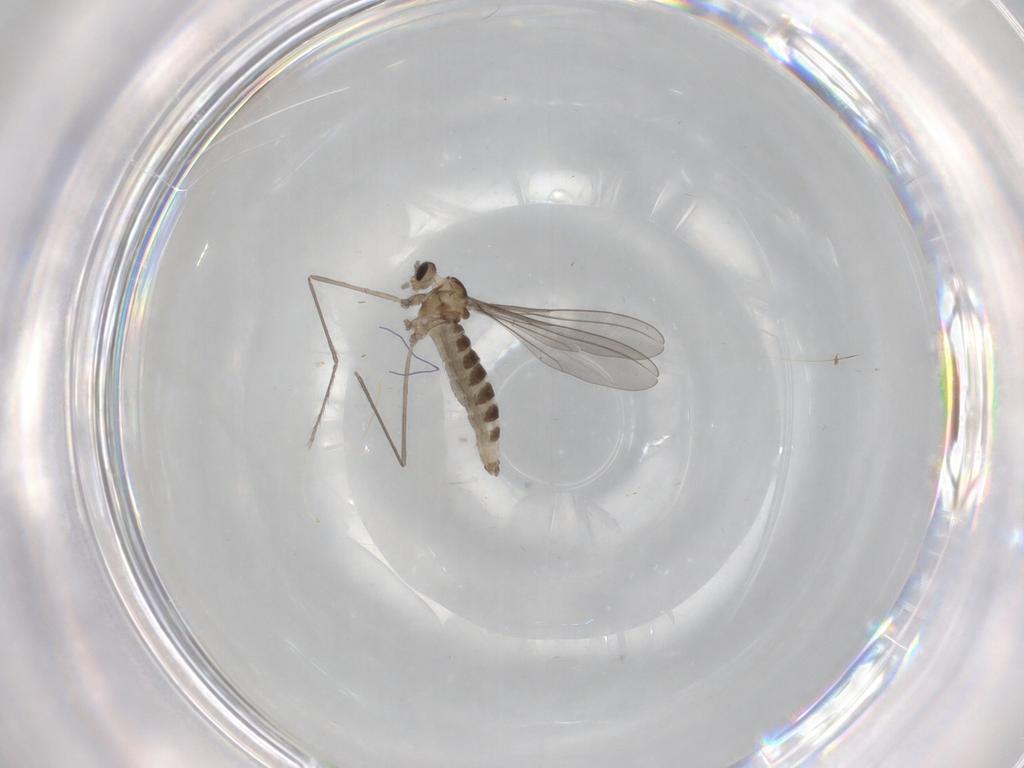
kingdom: Animalia
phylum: Arthropoda
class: Insecta
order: Diptera
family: Cecidomyiidae
